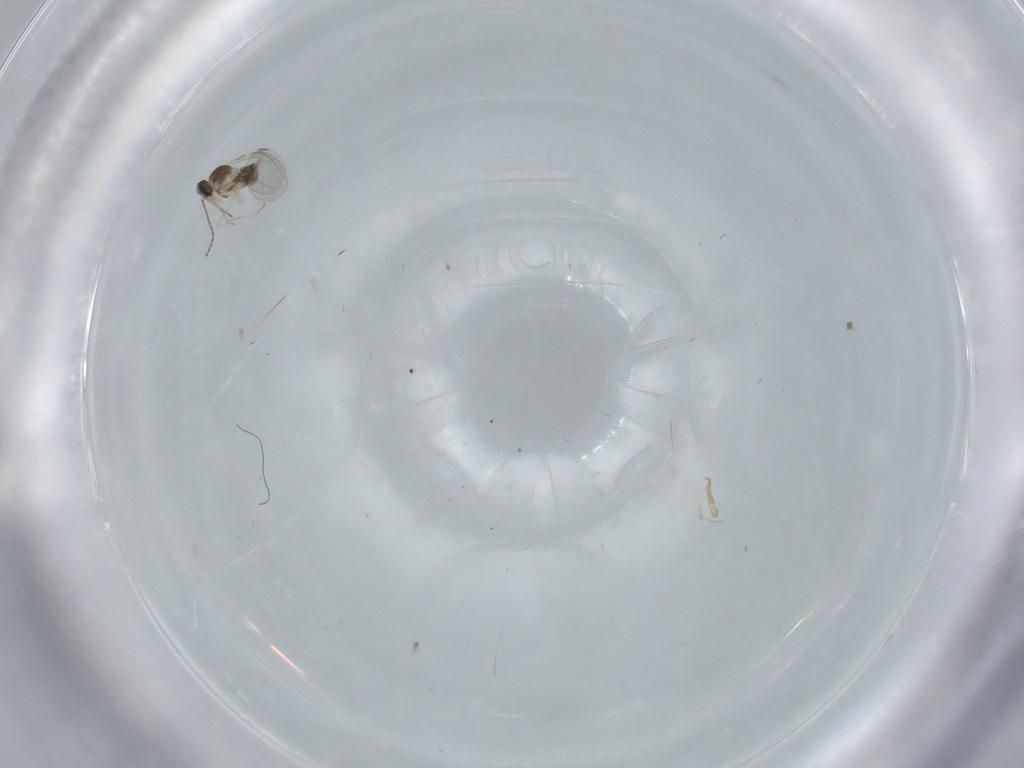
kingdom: Animalia
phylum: Arthropoda
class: Insecta
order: Diptera
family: Cecidomyiidae
